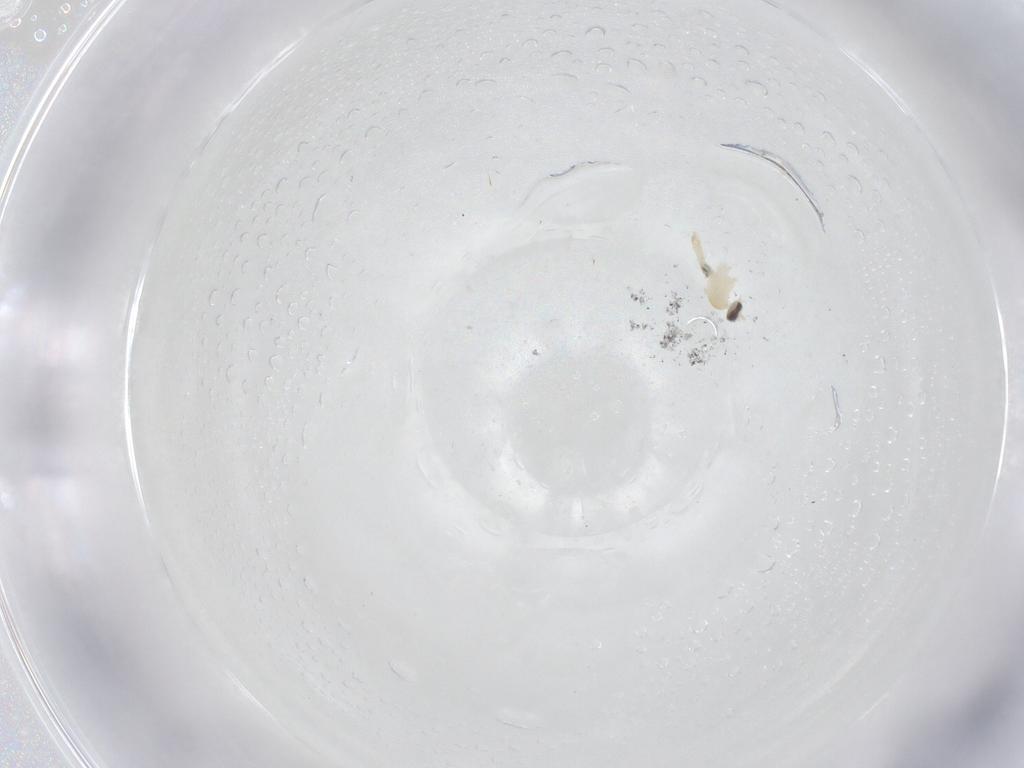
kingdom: Animalia
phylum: Arthropoda
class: Insecta
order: Diptera
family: Cecidomyiidae
